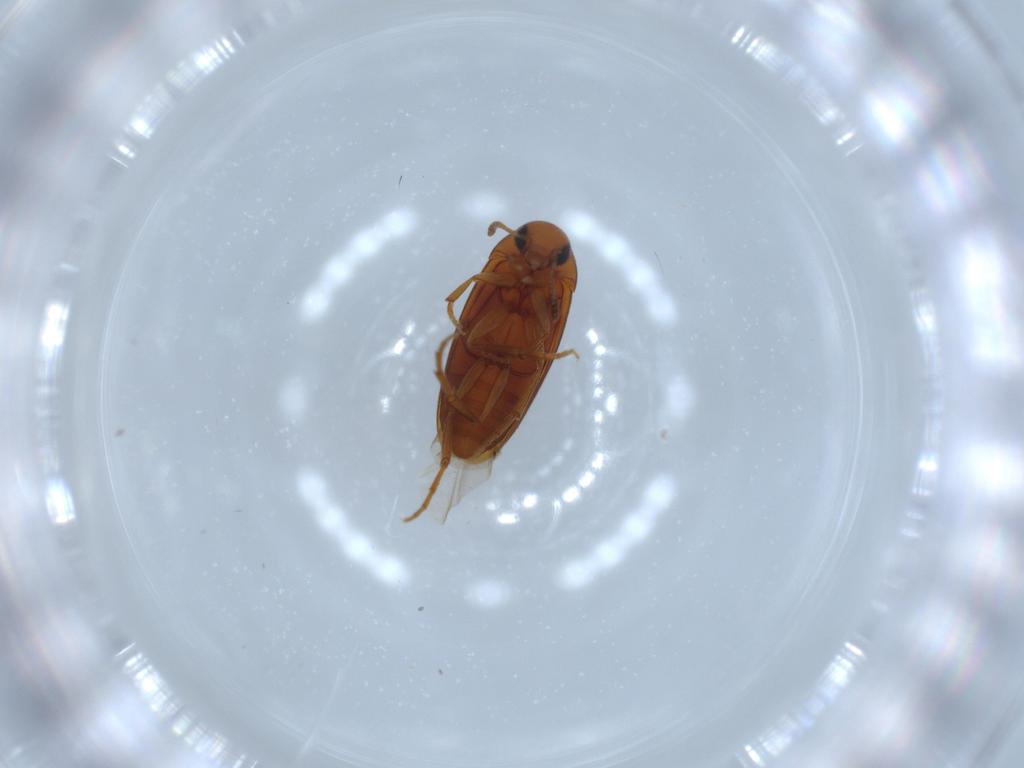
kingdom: Animalia
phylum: Arthropoda
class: Insecta
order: Coleoptera
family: Scraptiidae
